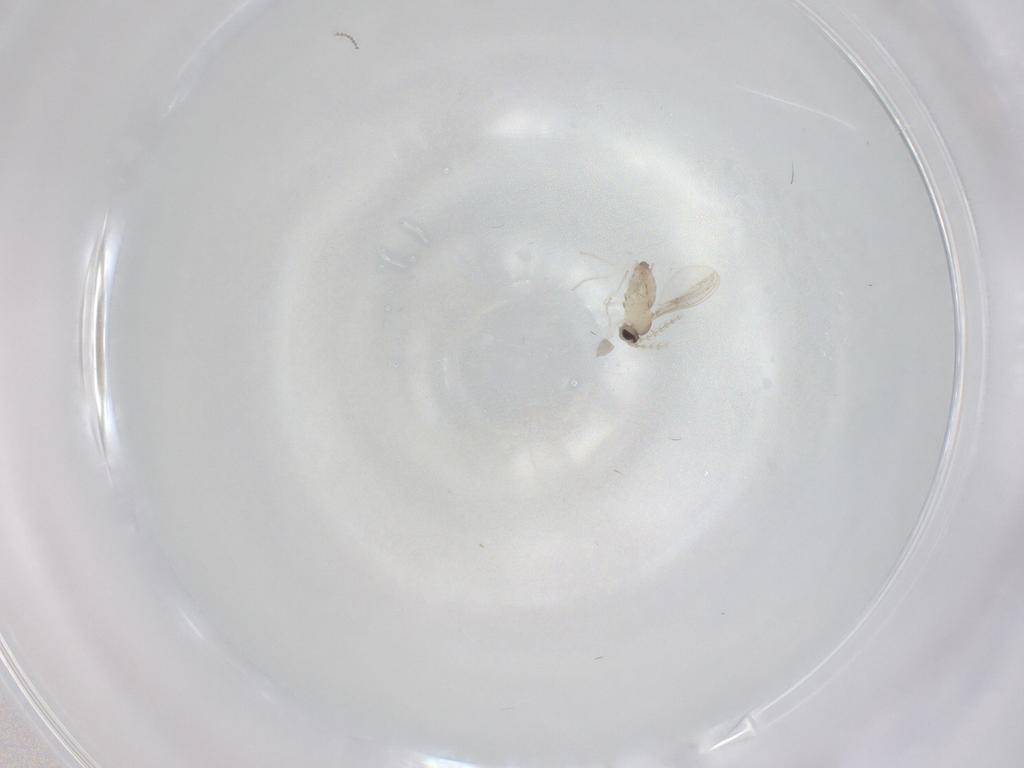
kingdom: Animalia
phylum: Arthropoda
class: Insecta
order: Diptera
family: Cecidomyiidae
